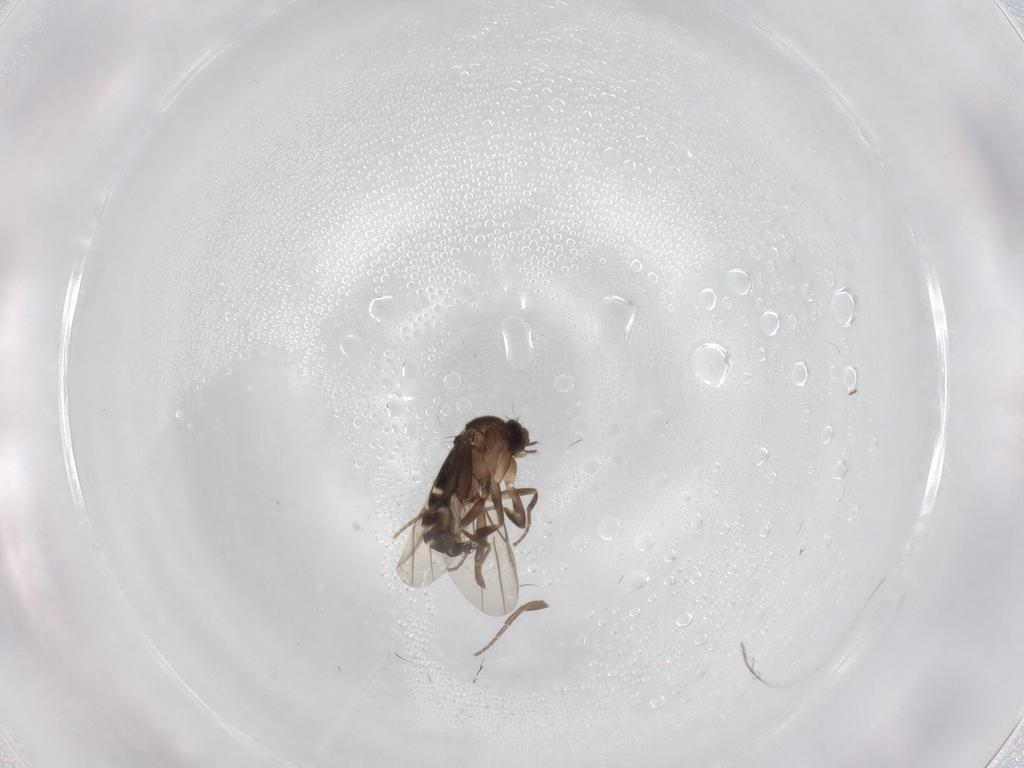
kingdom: Animalia
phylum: Arthropoda
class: Insecta
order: Diptera
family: Phoridae
